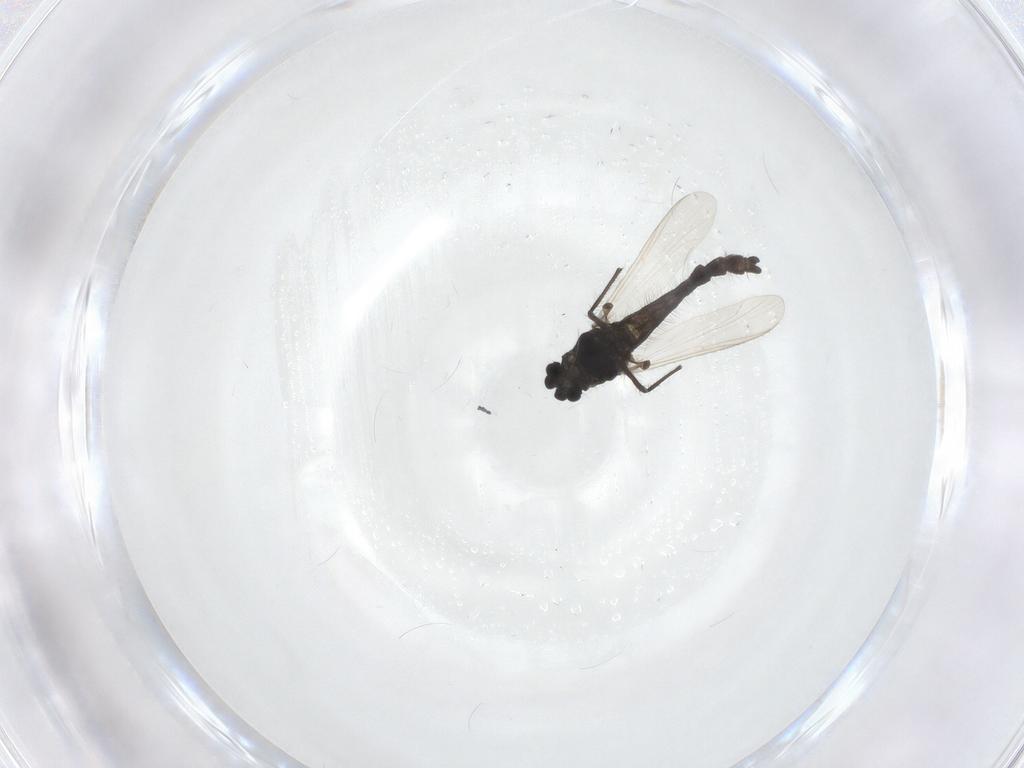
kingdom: Animalia
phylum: Arthropoda
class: Insecta
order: Diptera
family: Chironomidae
